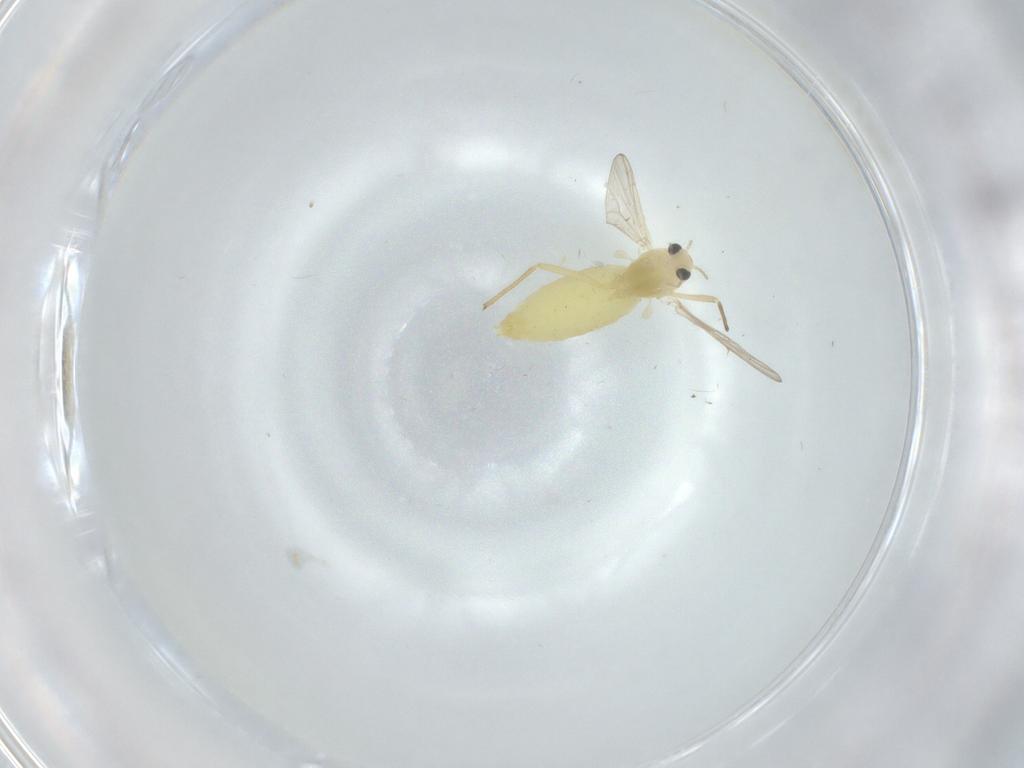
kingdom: Animalia
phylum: Arthropoda
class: Insecta
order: Diptera
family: Chironomidae
